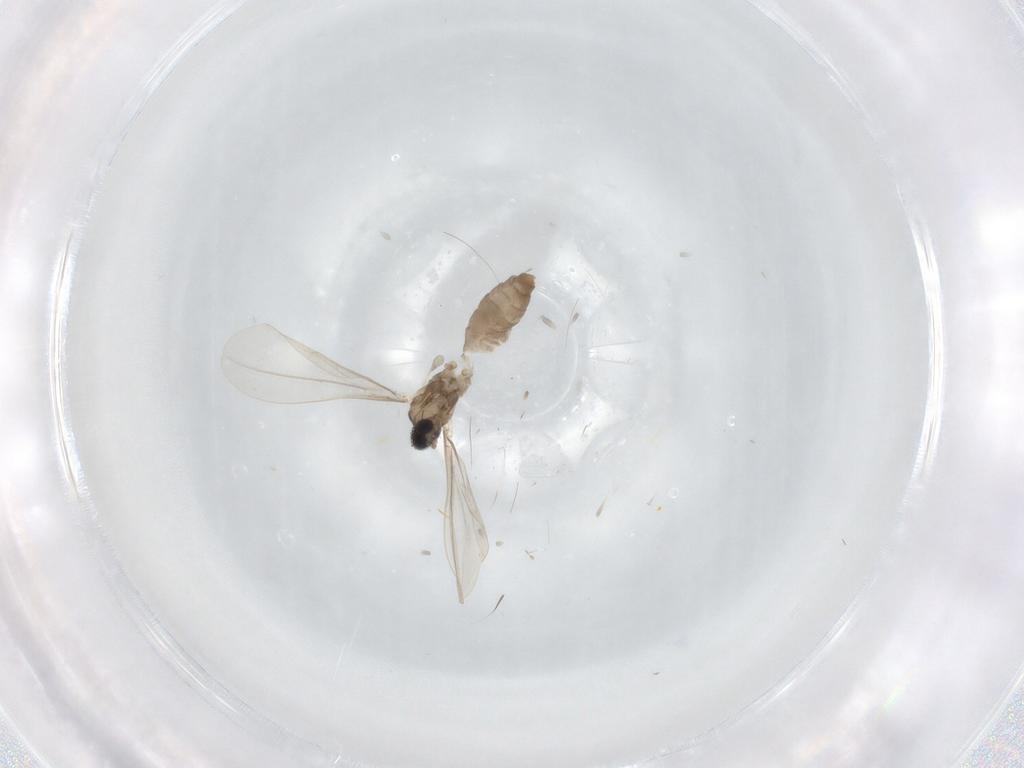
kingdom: Animalia
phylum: Arthropoda
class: Insecta
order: Diptera
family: Cecidomyiidae
